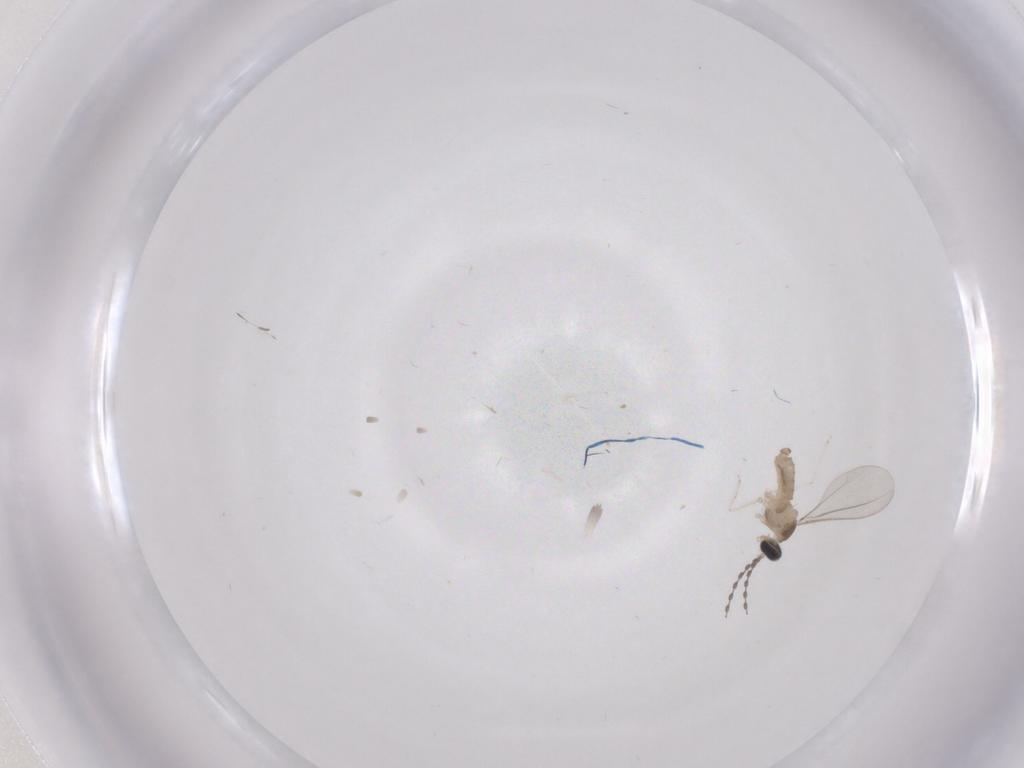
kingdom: Animalia
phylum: Arthropoda
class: Insecta
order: Diptera
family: Cecidomyiidae
